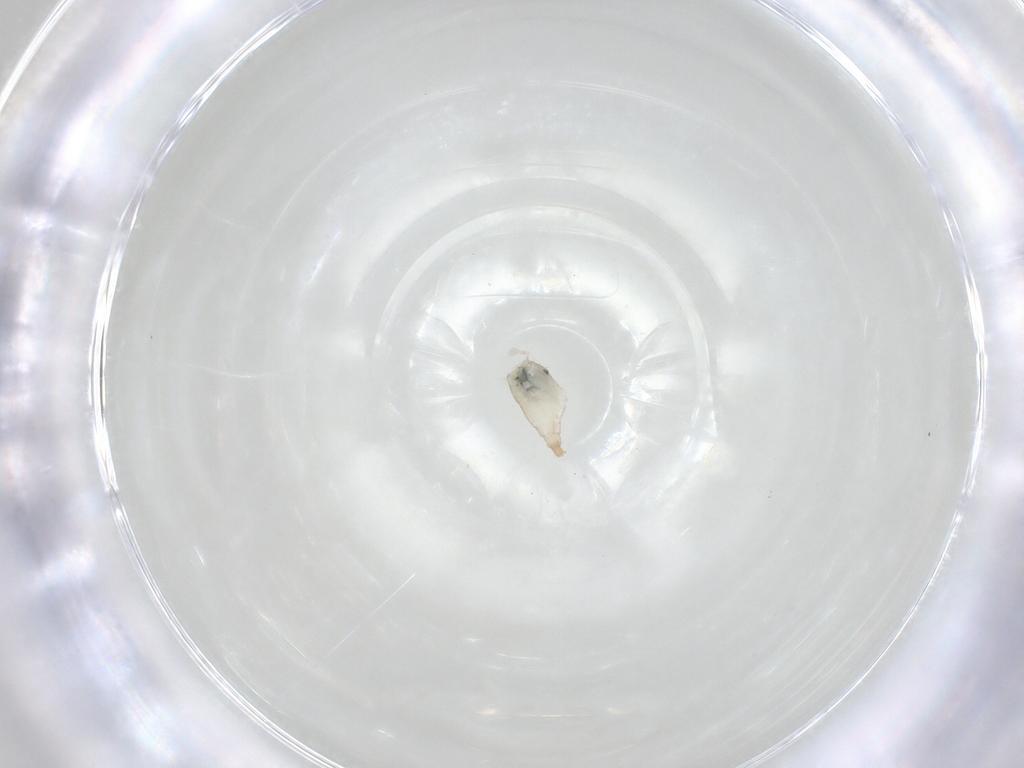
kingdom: Animalia
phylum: Arthropoda
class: Insecta
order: Diptera
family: Cecidomyiidae
